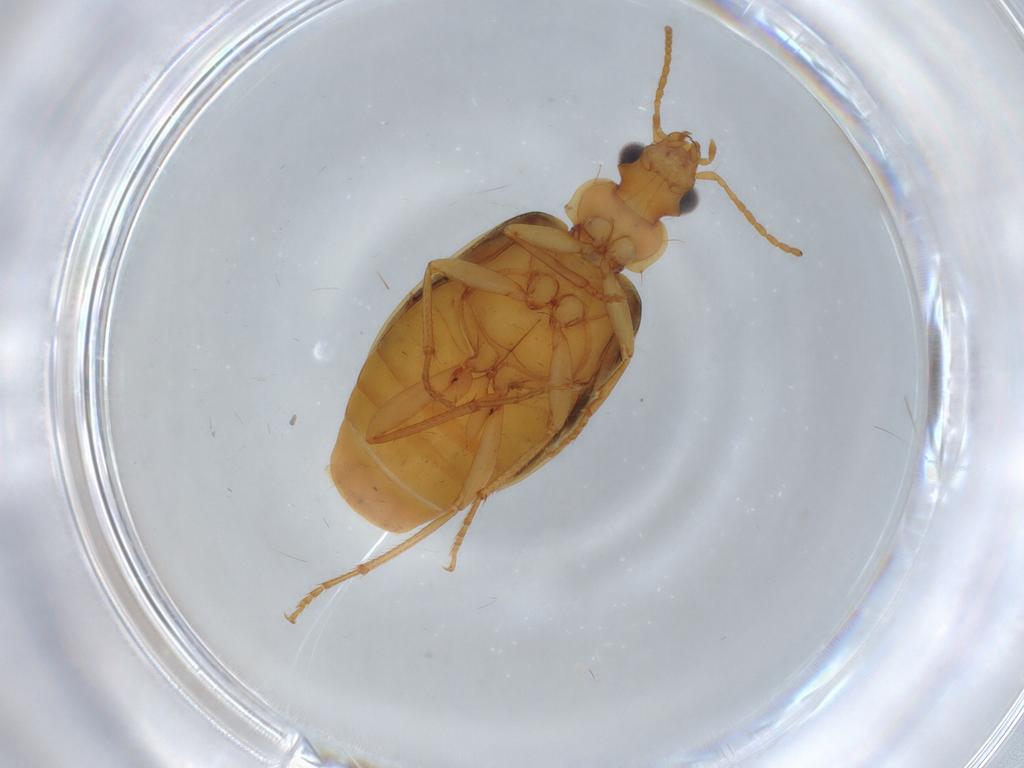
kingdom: Animalia
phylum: Arthropoda
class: Insecta
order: Coleoptera
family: Carabidae
